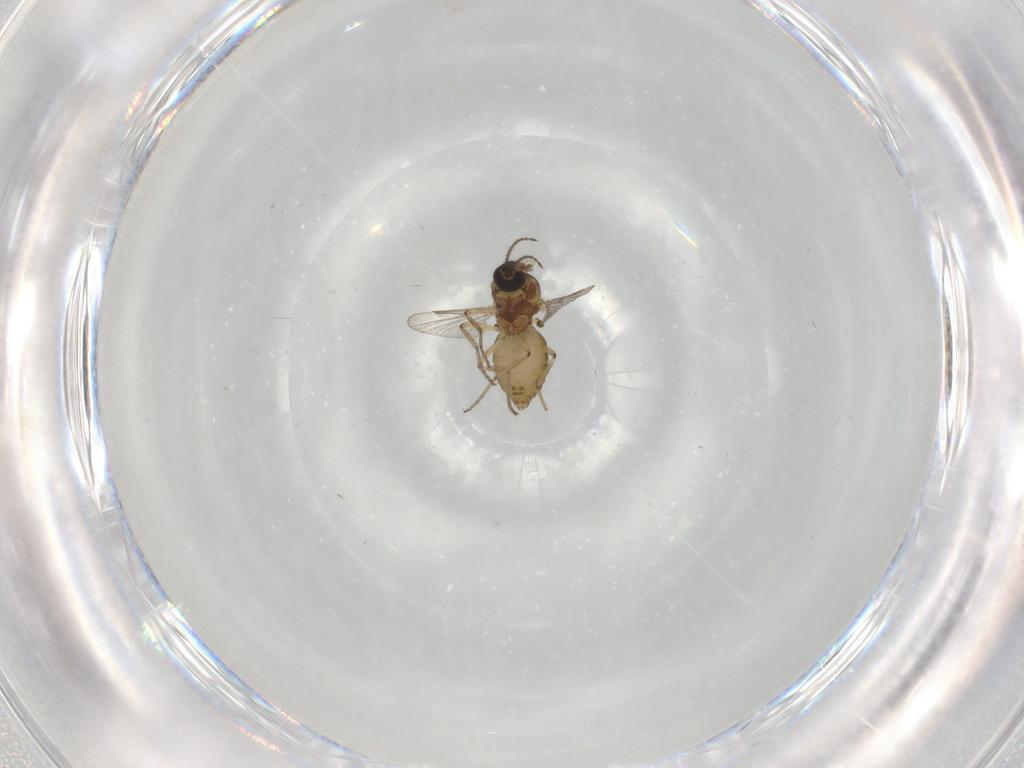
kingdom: Animalia
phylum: Arthropoda
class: Insecta
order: Diptera
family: Ceratopogonidae
